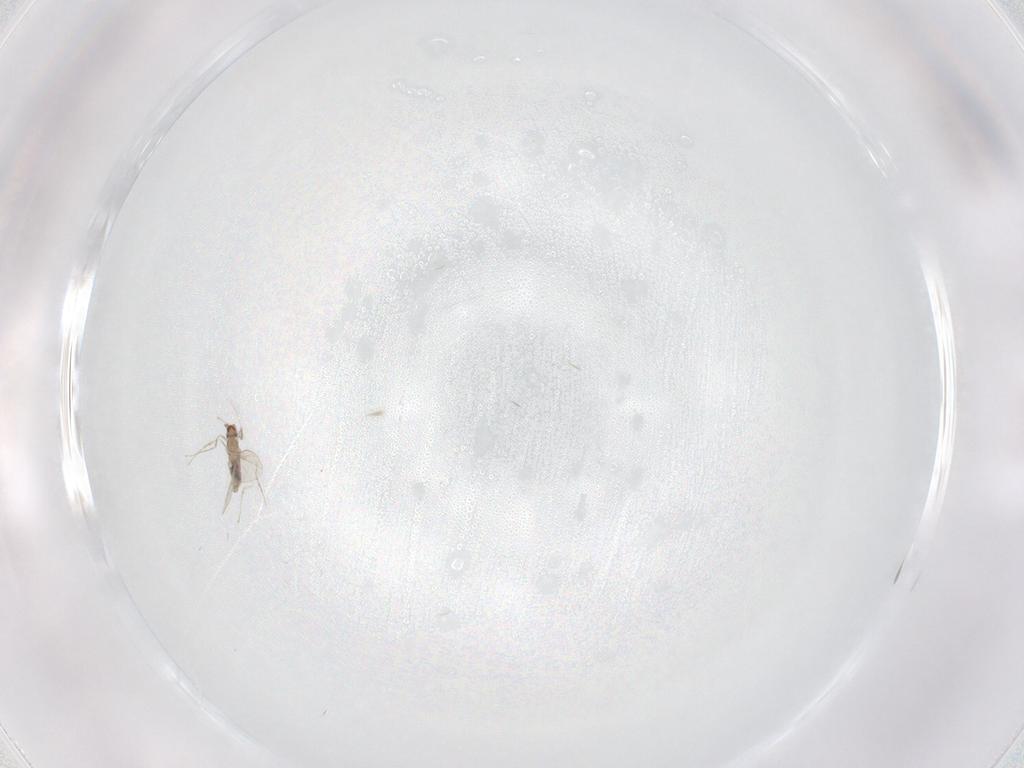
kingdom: Animalia
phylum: Arthropoda
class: Insecta
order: Diptera
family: Cecidomyiidae
